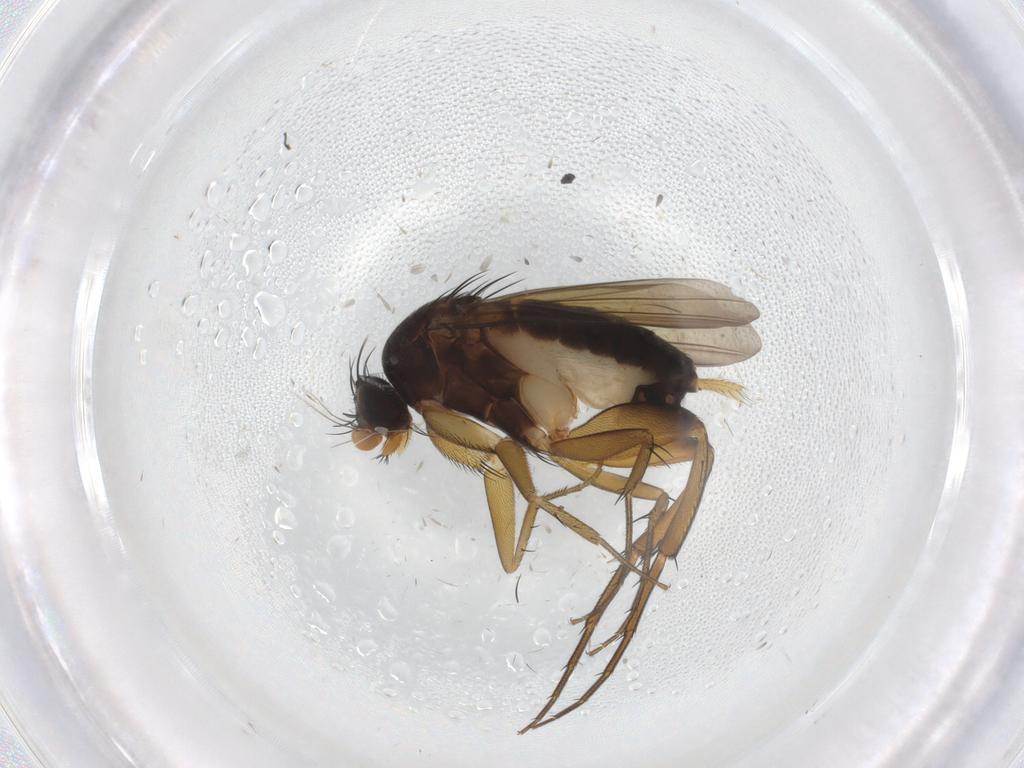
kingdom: Animalia
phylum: Arthropoda
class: Insecta
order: Diptera
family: Phoridae
